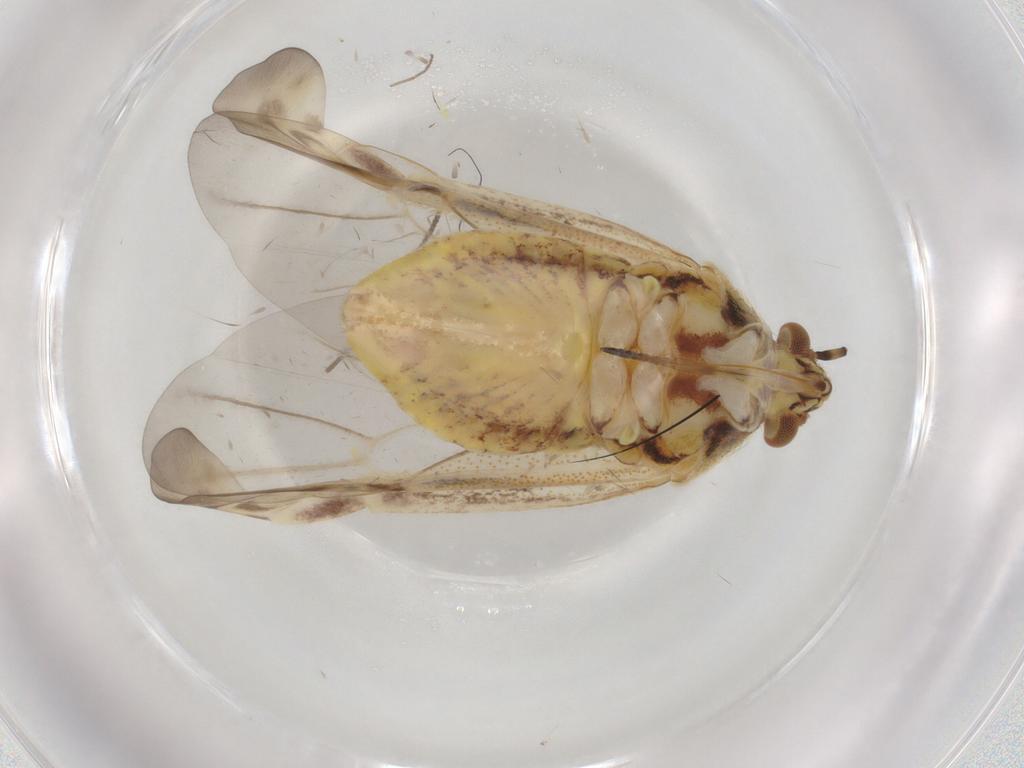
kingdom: Animalia
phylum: Arthropoda
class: Insecta
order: Hemiptera
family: Miridae
